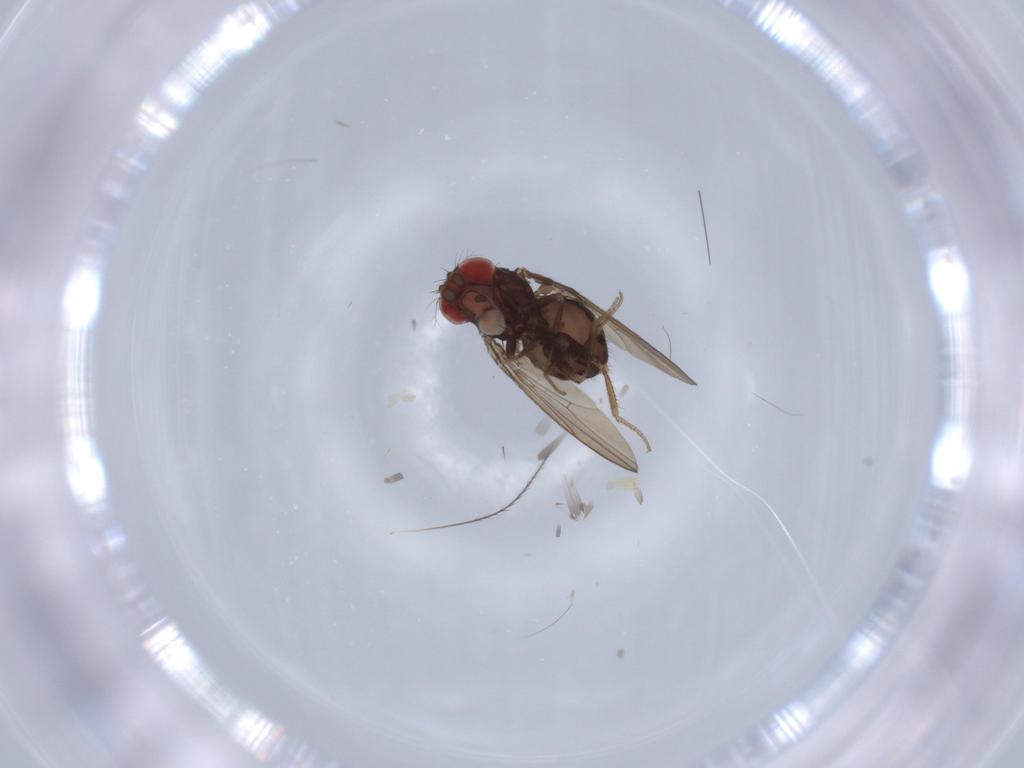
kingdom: Animalia
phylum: Arthropoda
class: Insecta
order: Diptera
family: Drosophilidae
